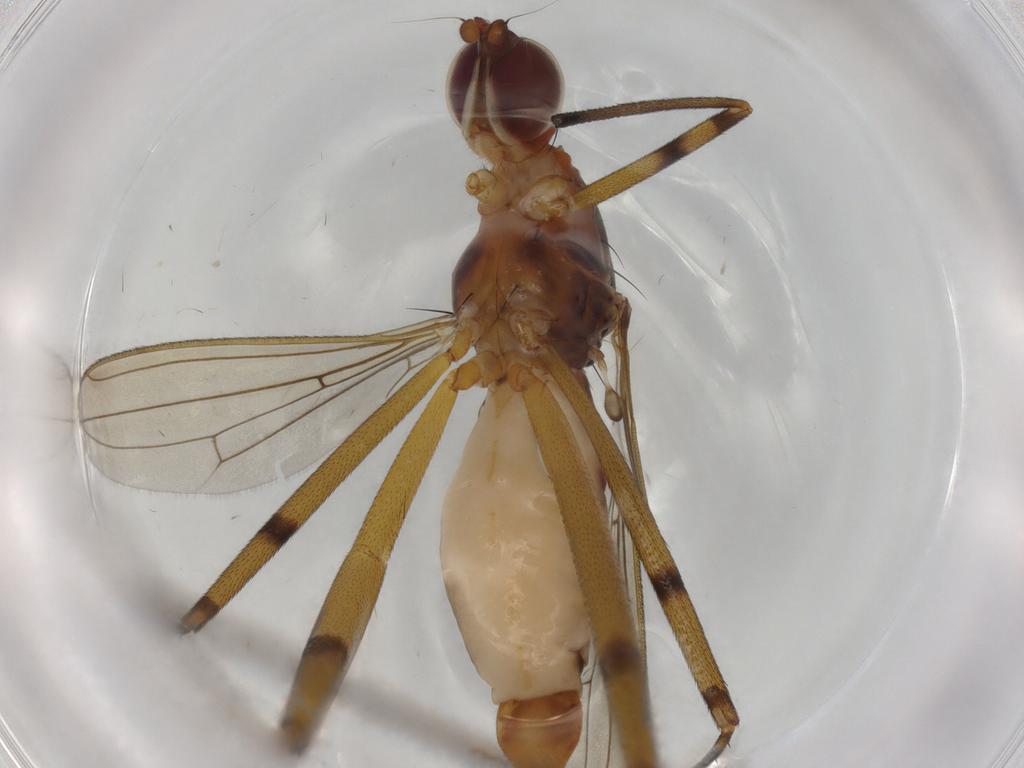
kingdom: Animalia
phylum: Arthropoda
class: Insecta
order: Diptera
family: Micropezidae
